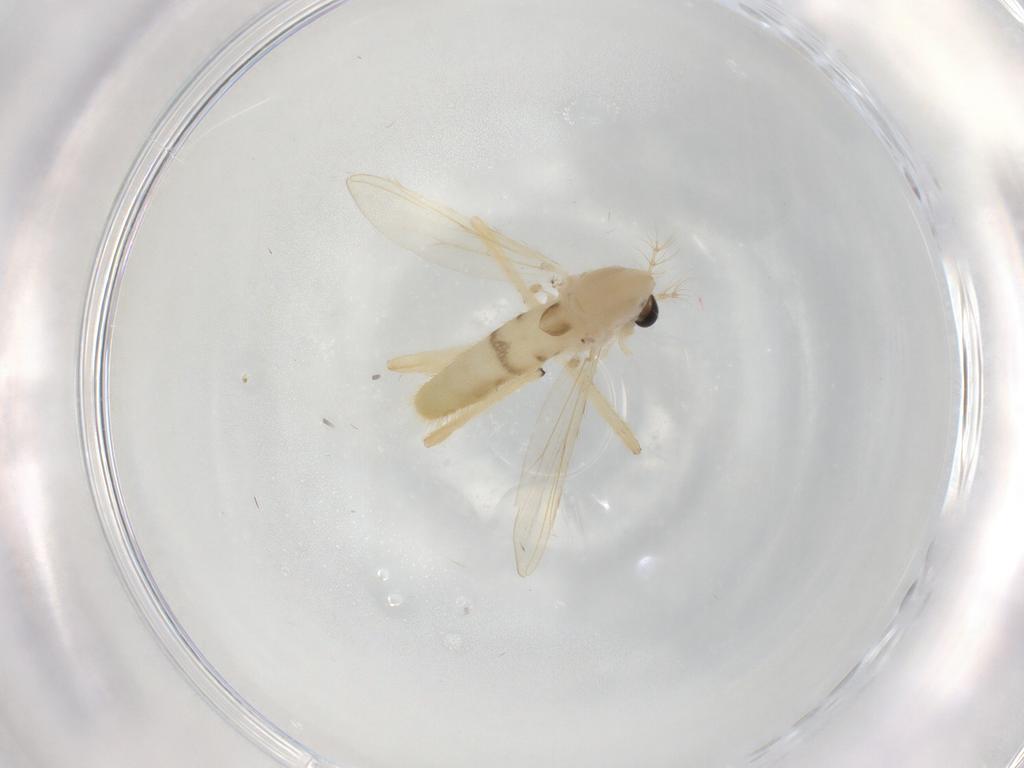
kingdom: Animalia
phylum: Arthropoda
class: Insecta
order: Diptera
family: Chironomidae
